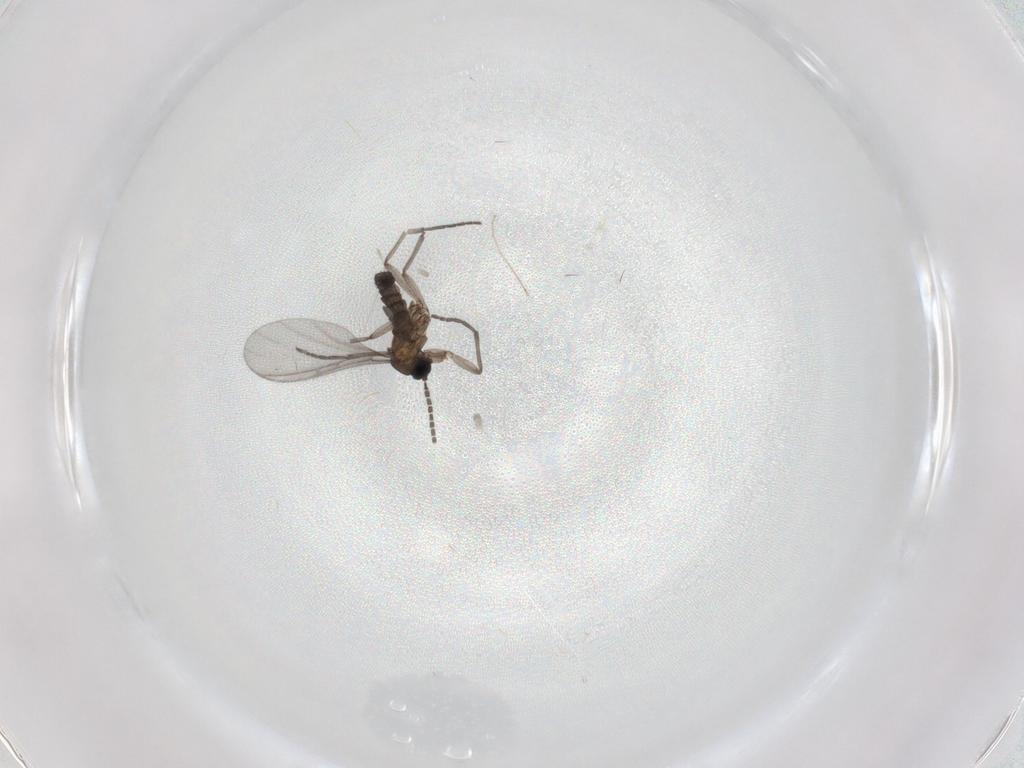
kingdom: Animalia
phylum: Arthropoda
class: Insecta
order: Diptera
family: Sciaridae
